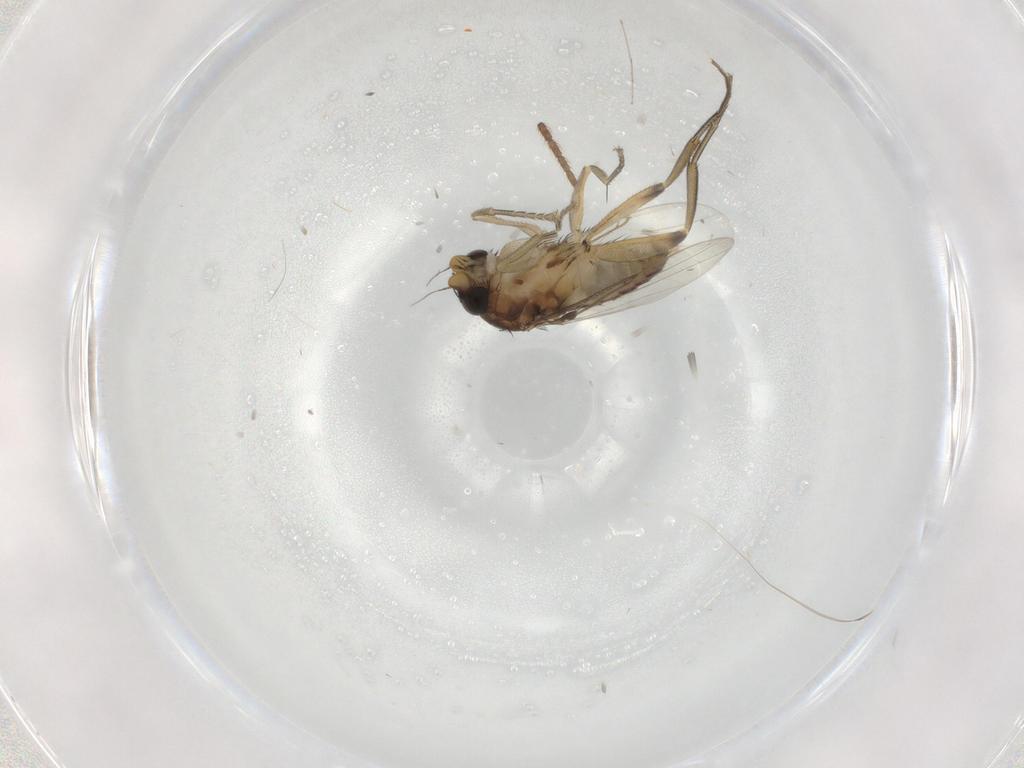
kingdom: Animalia
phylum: Arthropoda
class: Insecta
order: Diptera
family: Phoridae
